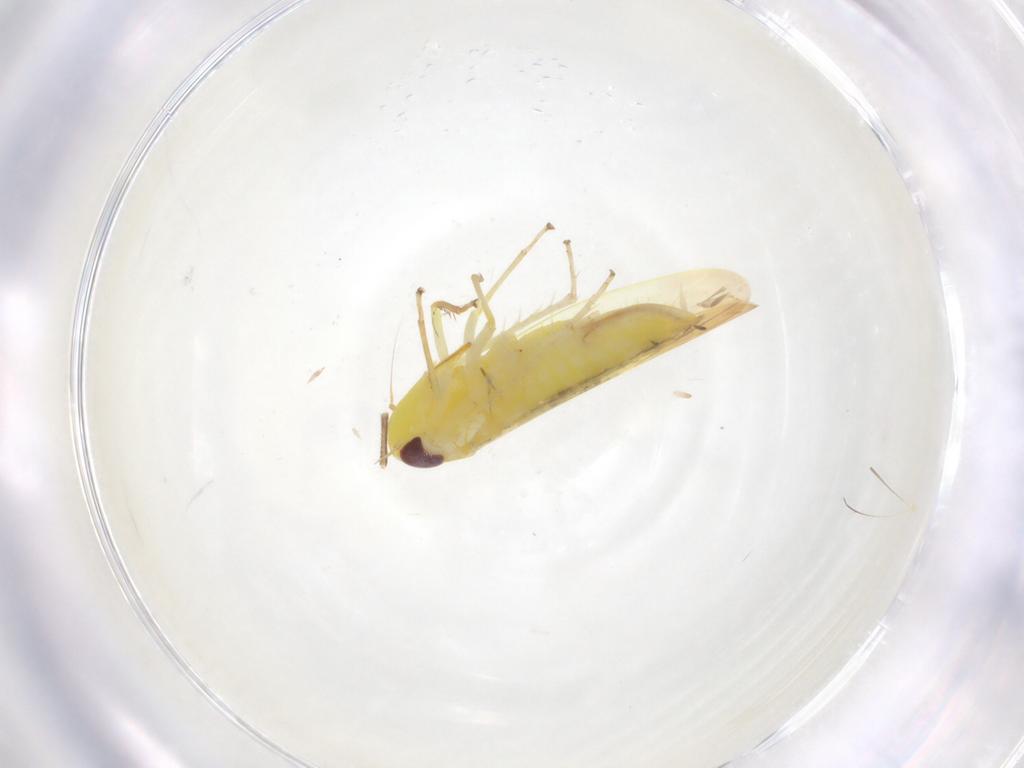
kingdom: Animalia
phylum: Arthropoda
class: Insecta
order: Hemiptera
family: Cicadellidae
